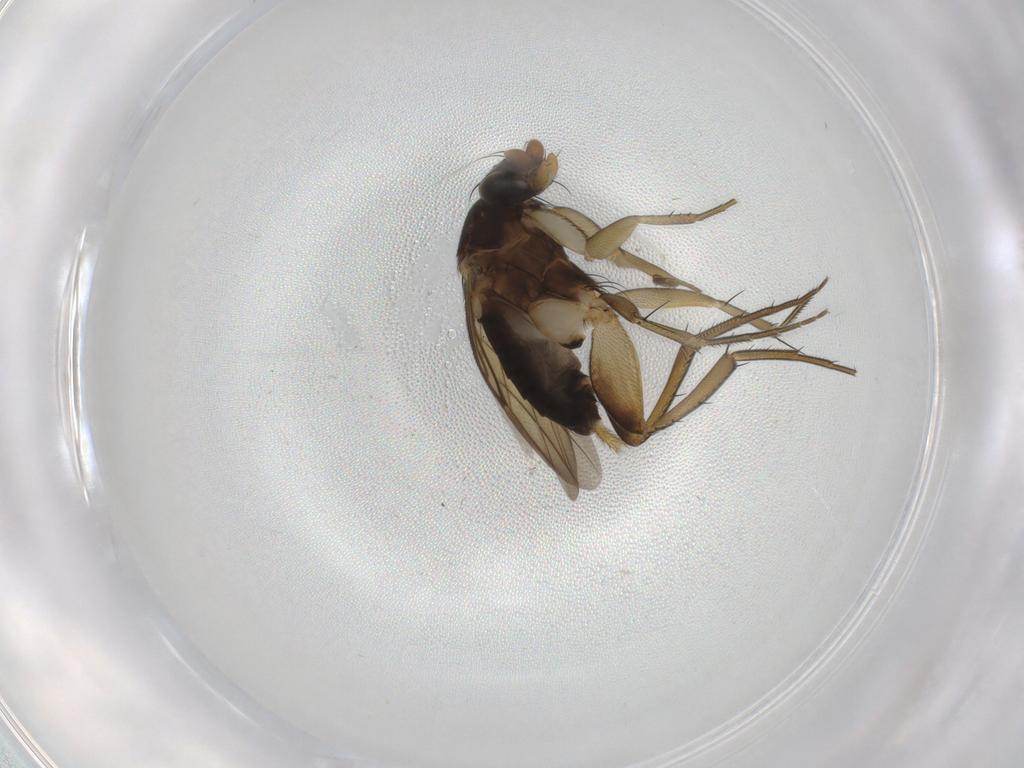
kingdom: Animalia
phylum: Arthropoda
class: Insecta
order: Diptera
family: Phoridae
